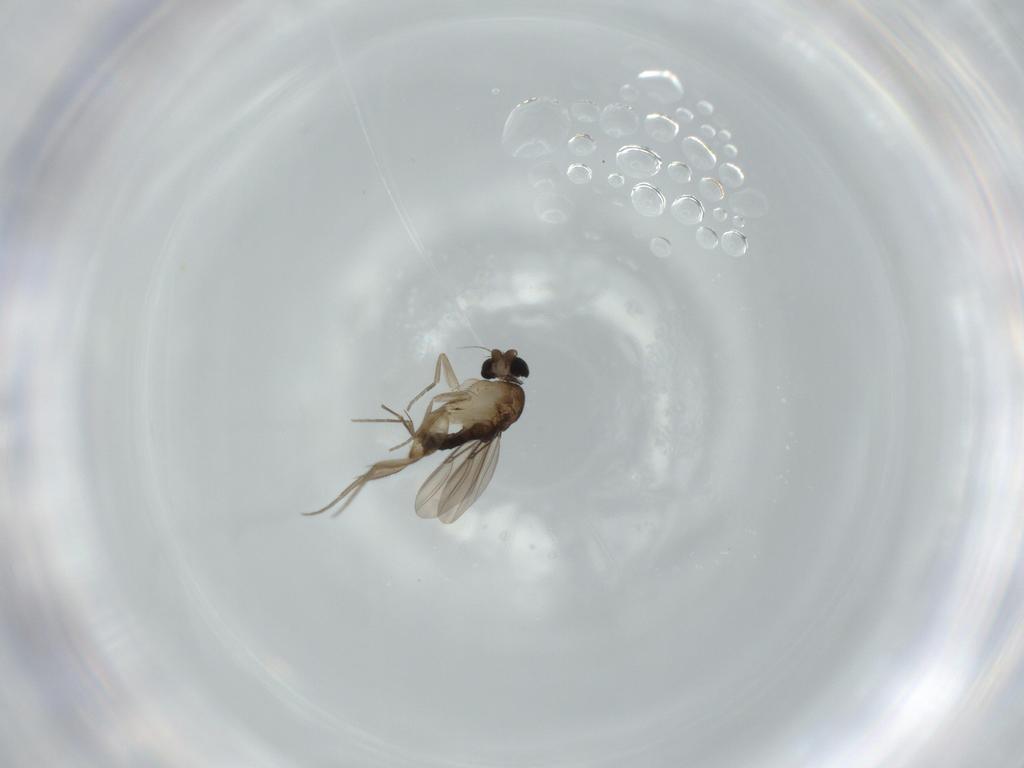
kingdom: Animalia
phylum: Arthropoda
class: Insecta
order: Diptera
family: Phoridae
